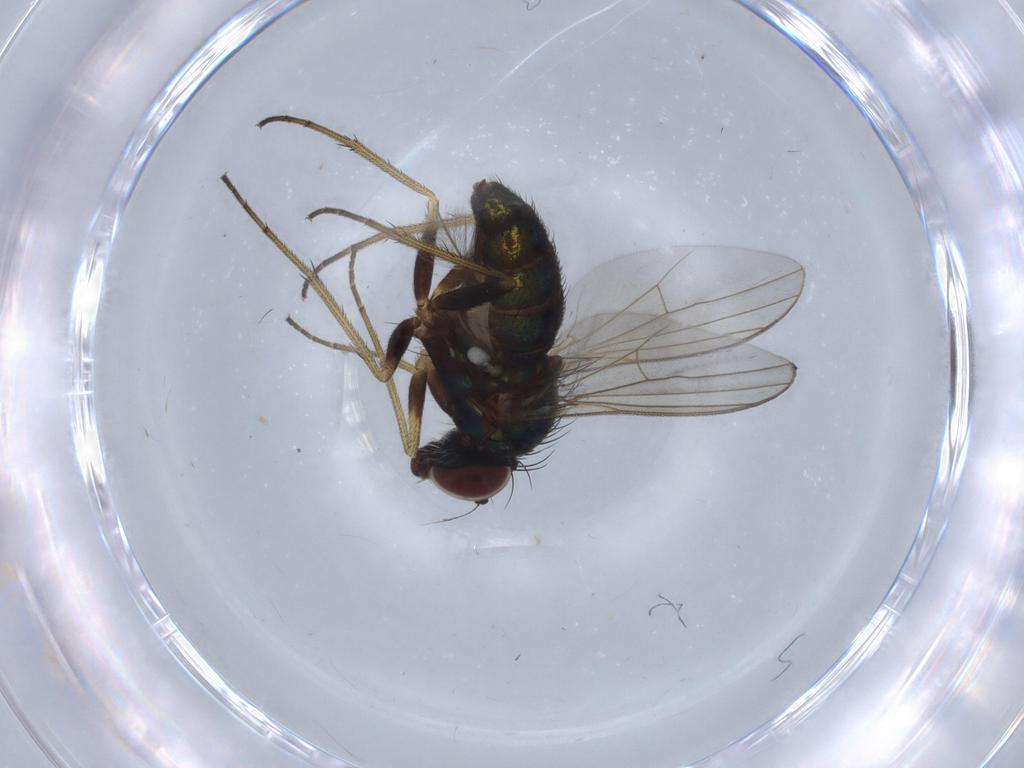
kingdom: Animalia
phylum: Arthropoda
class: Insecta
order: Diptera
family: Dolichopodidae
